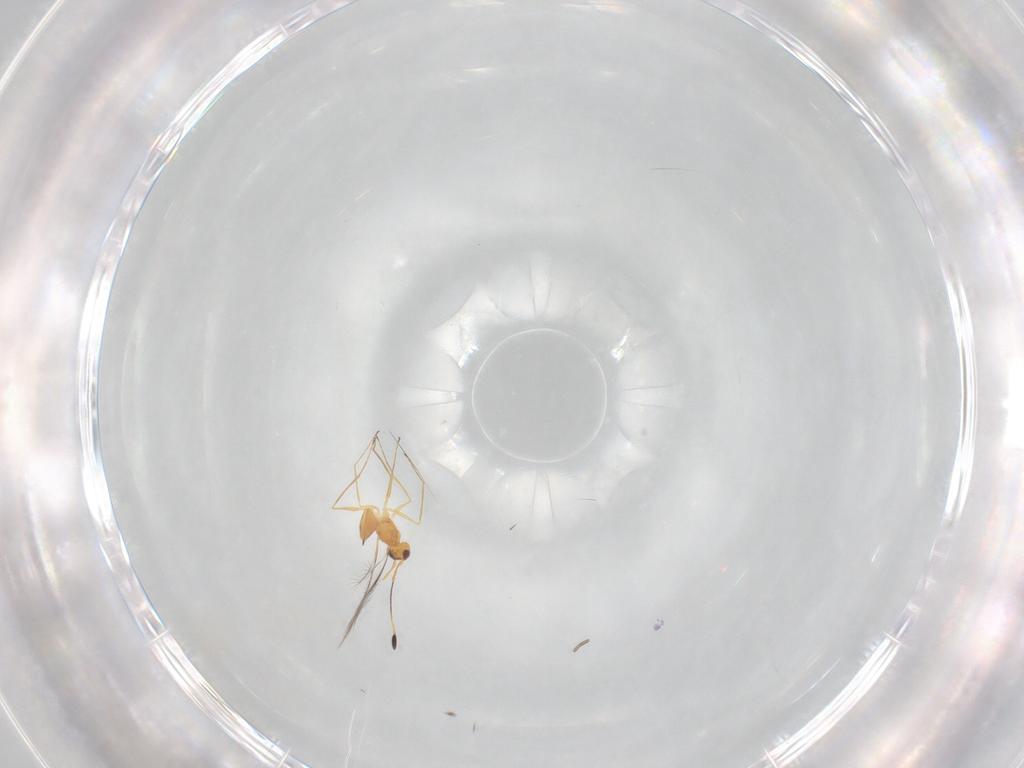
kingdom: Animalia
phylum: Arthropoda
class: Insecta
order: Hymenoptera
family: Mymaridae
